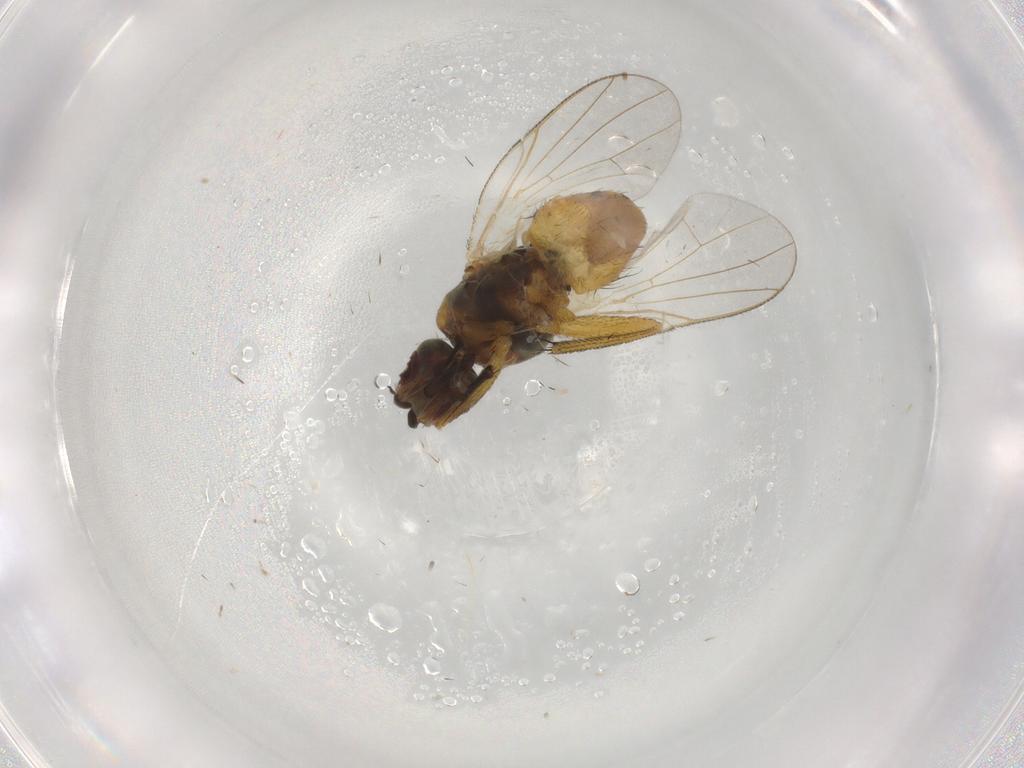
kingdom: Animalia
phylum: Arthropoda
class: Insecta
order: Diptera
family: Muscidae
